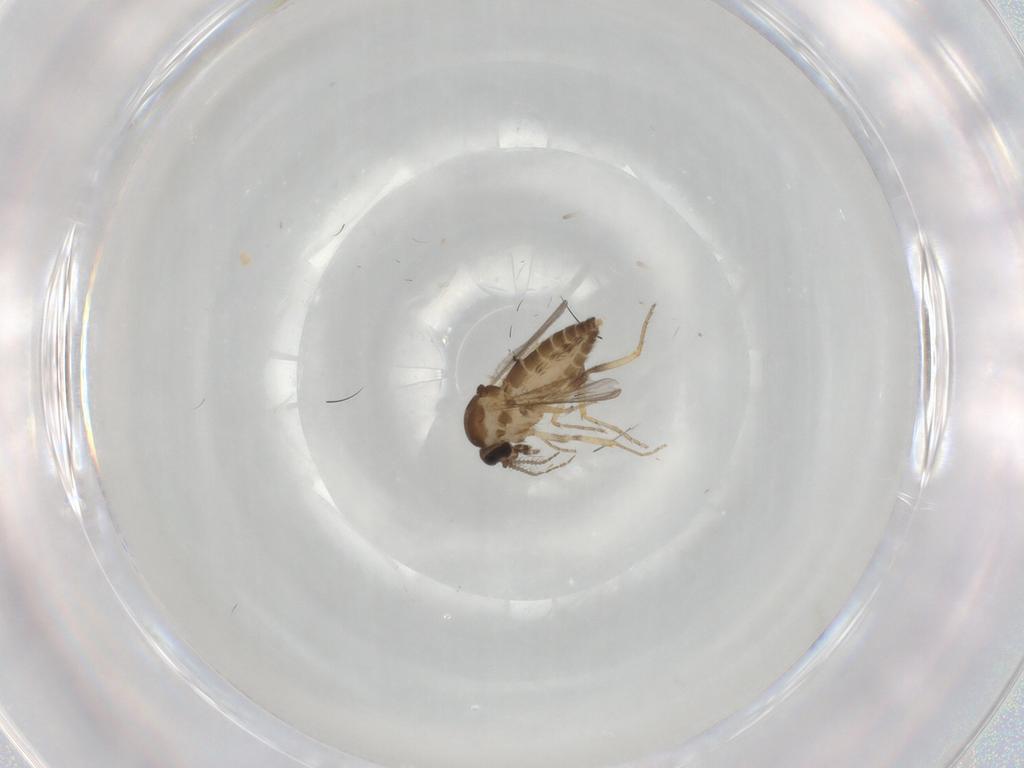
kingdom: Animalia
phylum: Arthropoda
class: Insecta
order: Diptera
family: Ceratopogonidae
